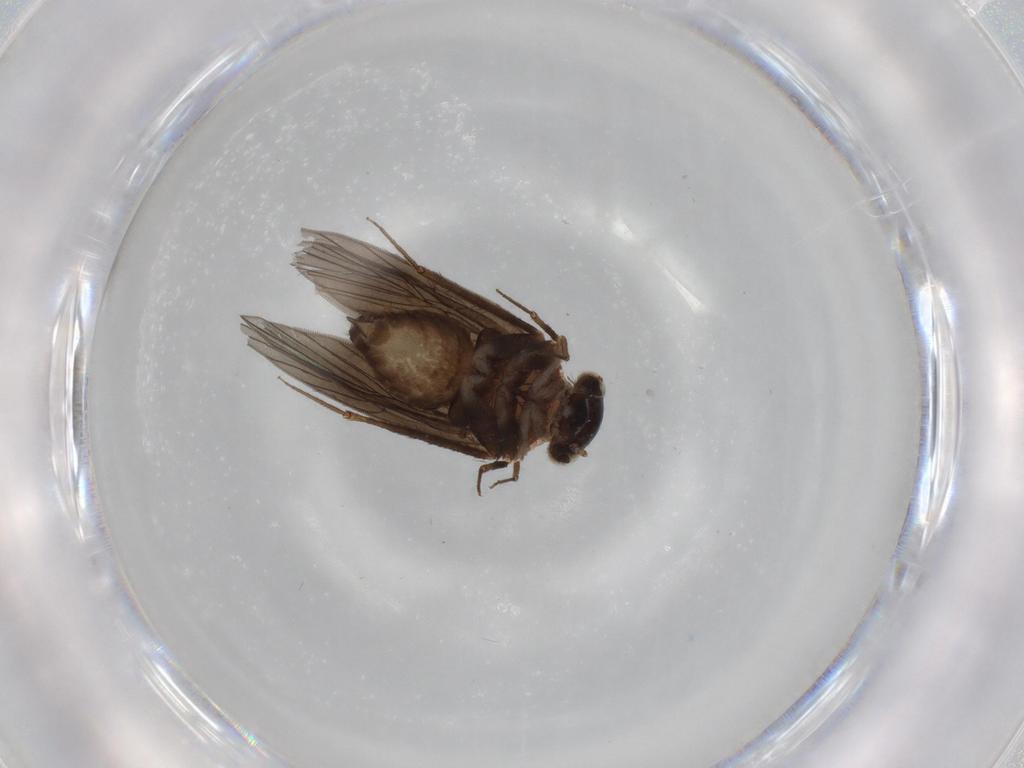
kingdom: Animalia
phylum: Arthropoda
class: Insecta
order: Psocodea
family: Lepidopsocidae
